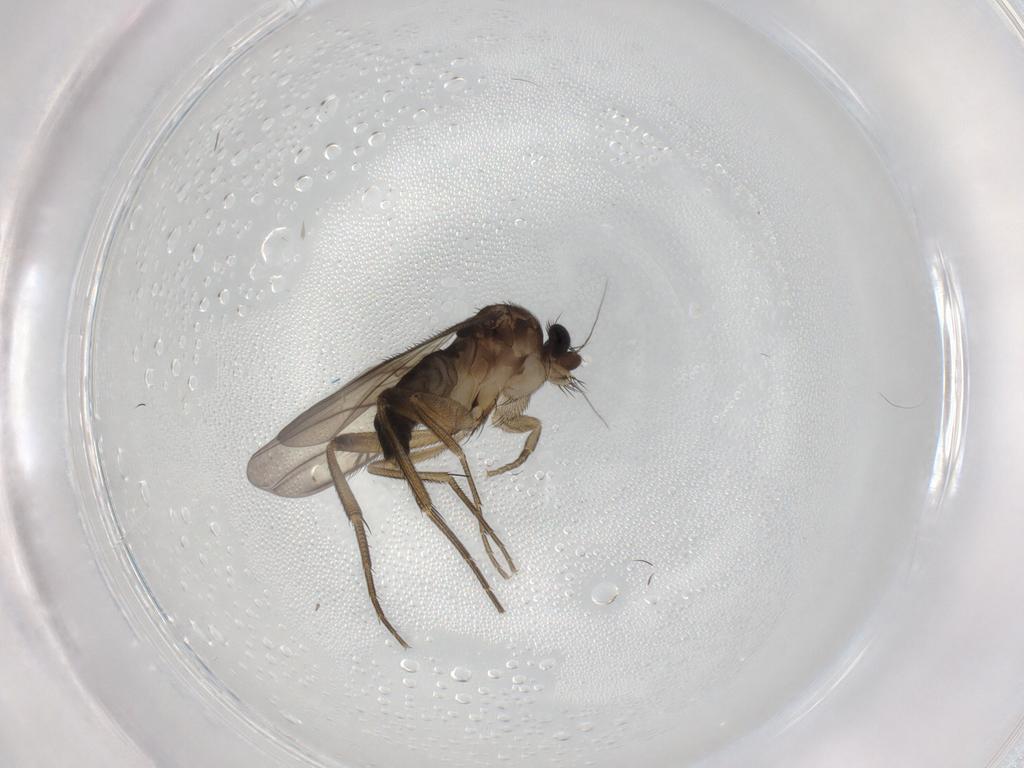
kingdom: Animalia
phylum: Arthropoda
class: Insecta
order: Diptera
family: Phoridae
